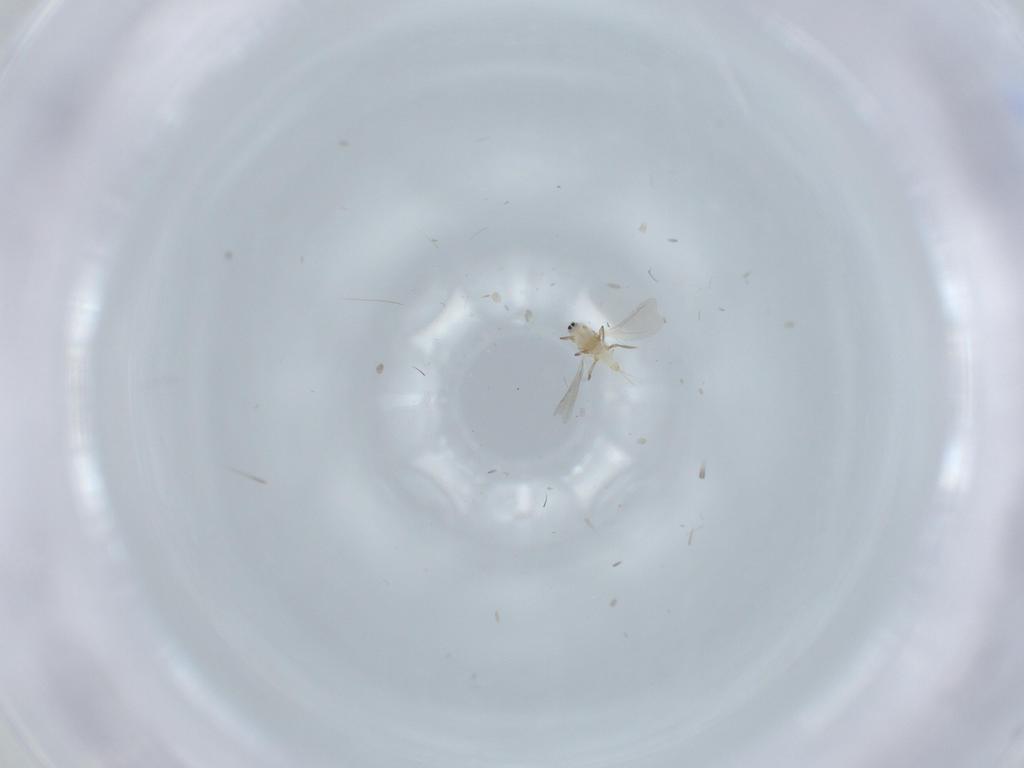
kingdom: Animalia
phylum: Arthropoda
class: Insecta
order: Hemiptera
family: Diaspididae
